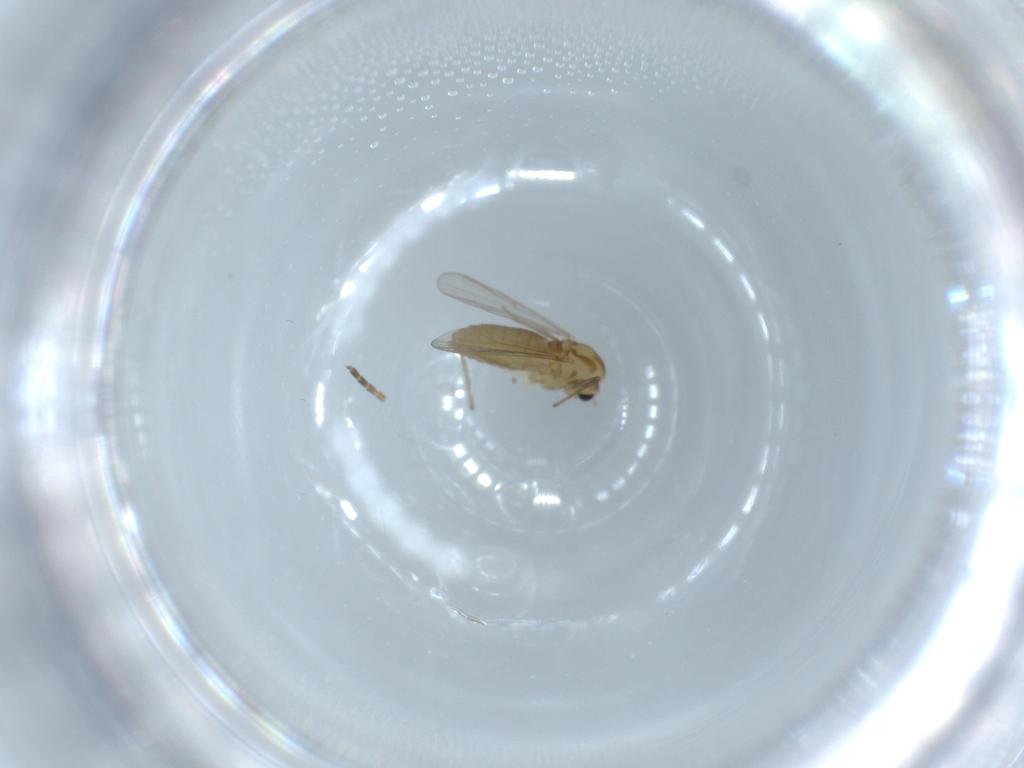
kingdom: Animalia
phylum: Arthropoda
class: Insecta
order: Diptera
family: Chironomidae
